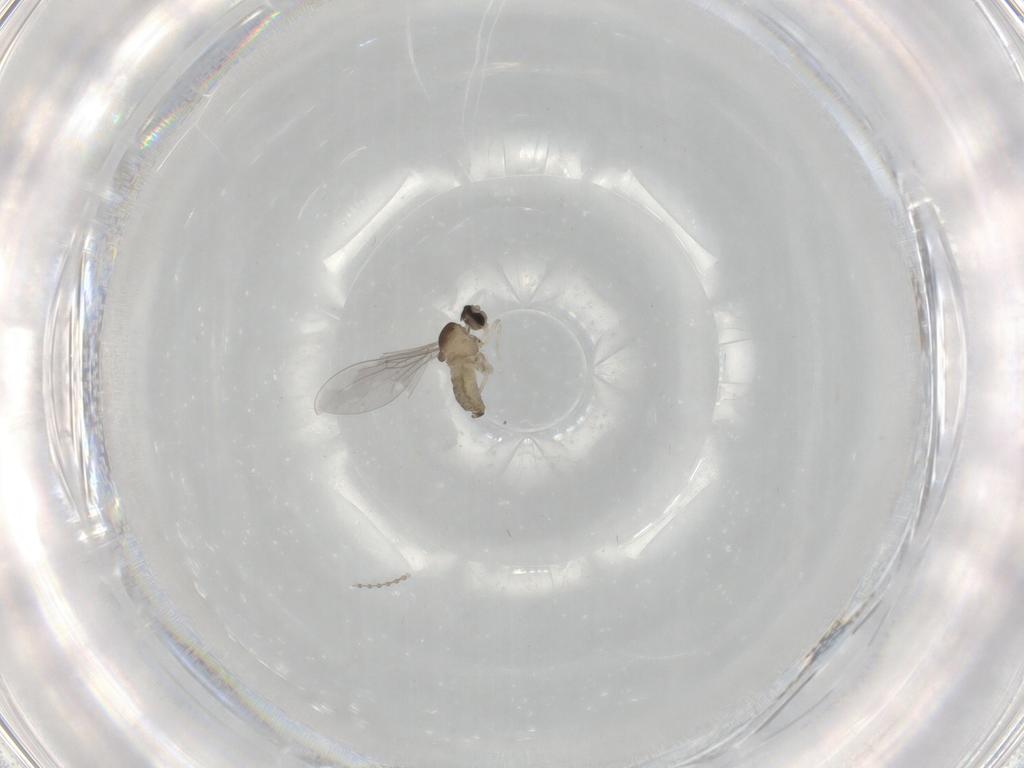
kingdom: Animalia
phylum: Arthropoda
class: Insecta
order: Diptera
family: Cecidomyiidae
